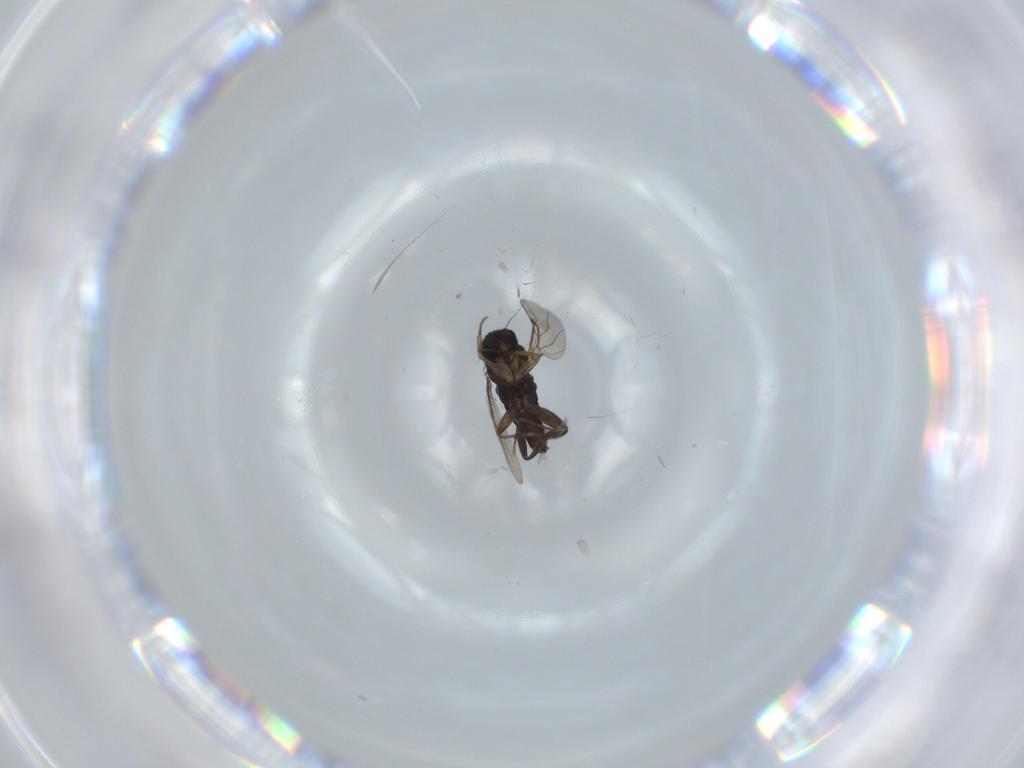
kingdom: Animalia
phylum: Arthropoda
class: Insecta
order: Diptera
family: Phoridae
